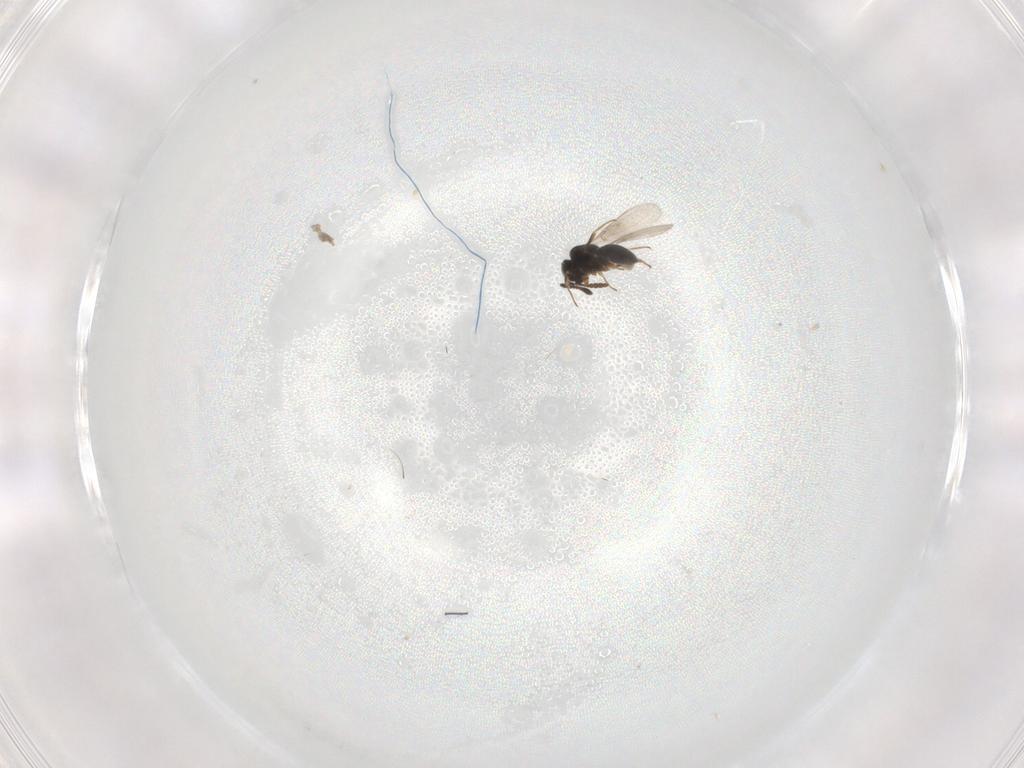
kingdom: Animalia
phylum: Arthropoda
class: Insecta
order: Hymenoptera
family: Scelionidae
